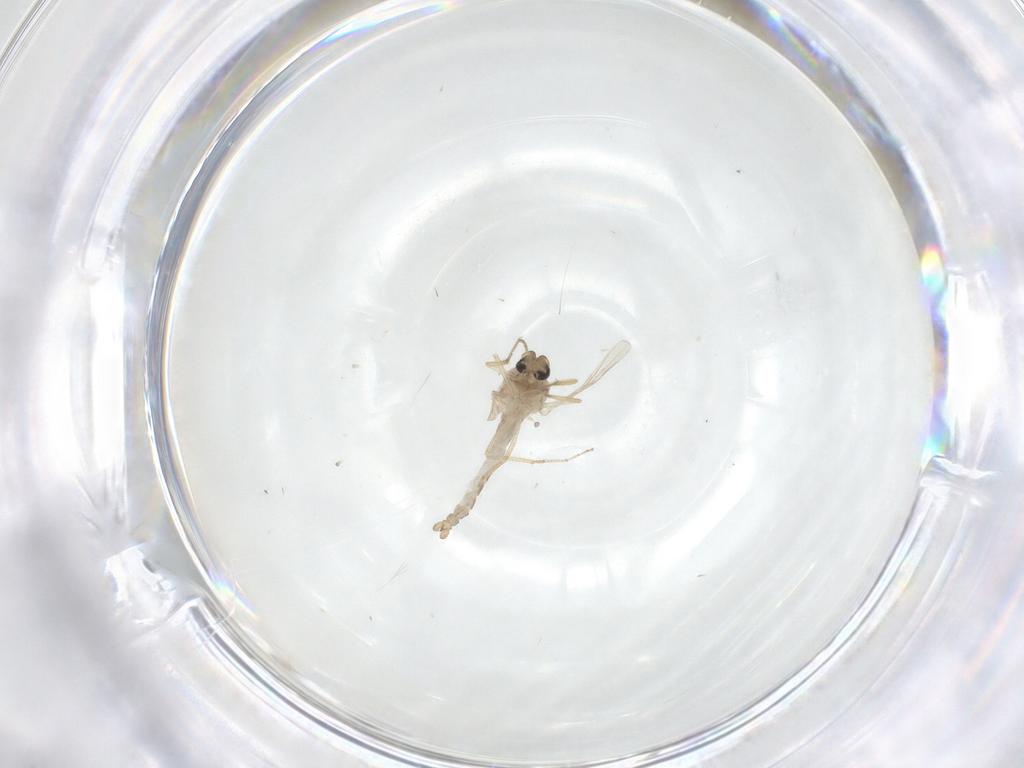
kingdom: Animalia
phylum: Arthropoda
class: Insecta
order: Diptera
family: Ceratopogonidae
